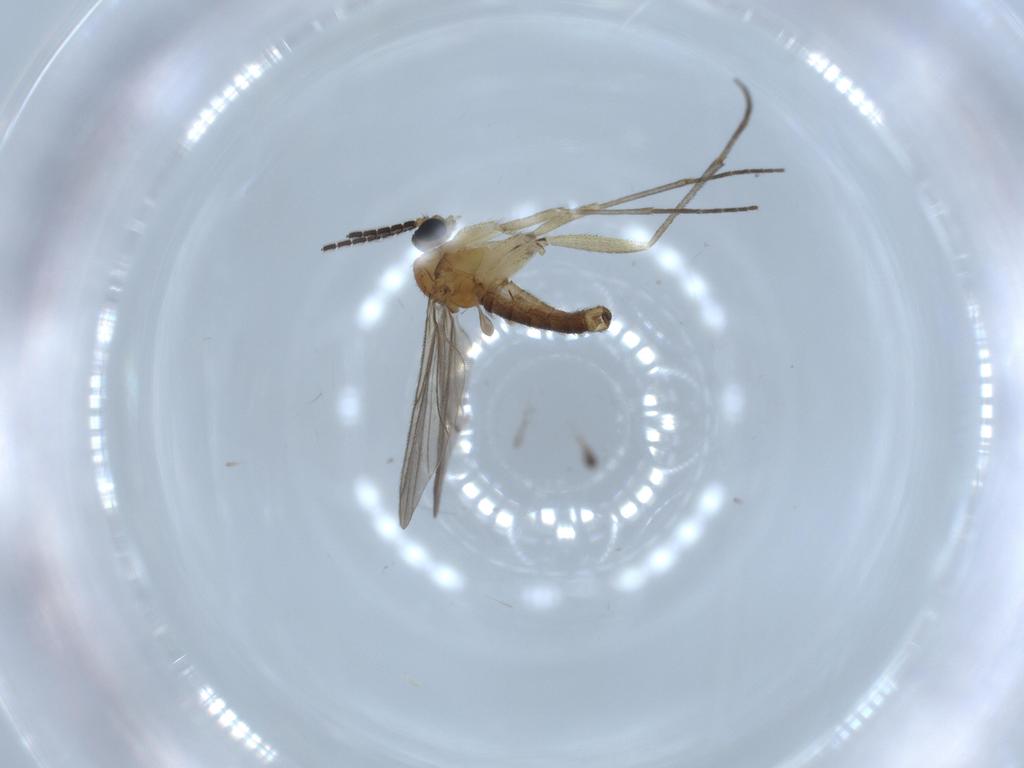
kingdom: Animalia
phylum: Arthropoda
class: Insecta
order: Diptera
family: Sciaridae
